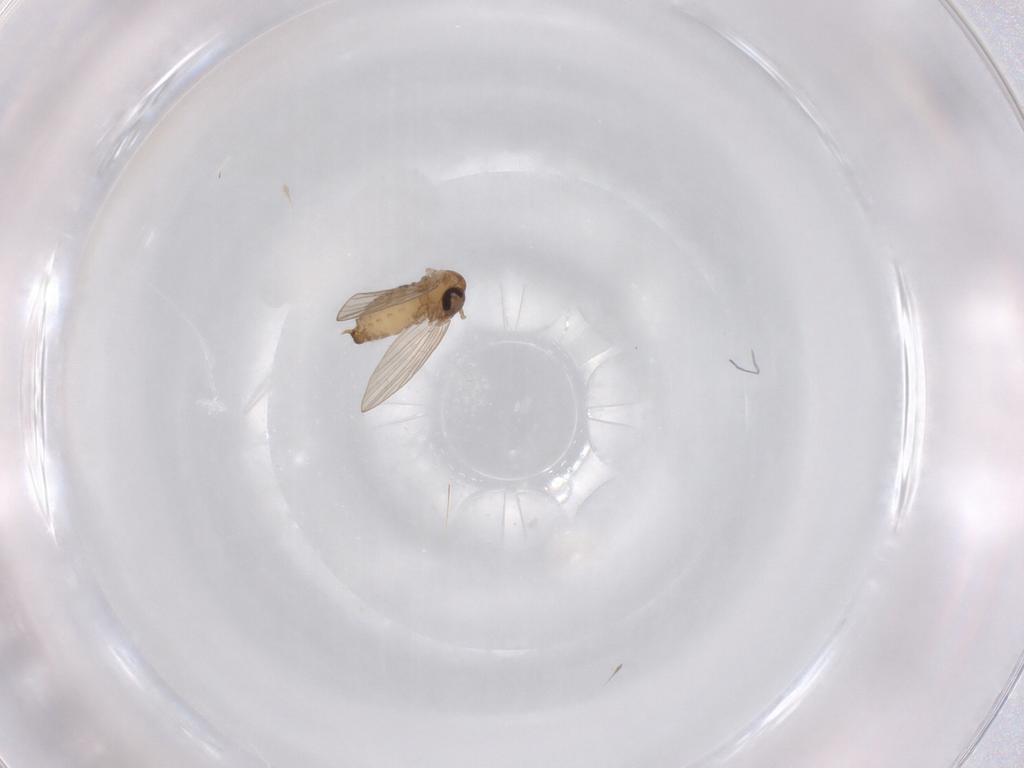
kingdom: Animalia
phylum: Arthropoda
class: Insecta
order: Diptera
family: Psychodidae
